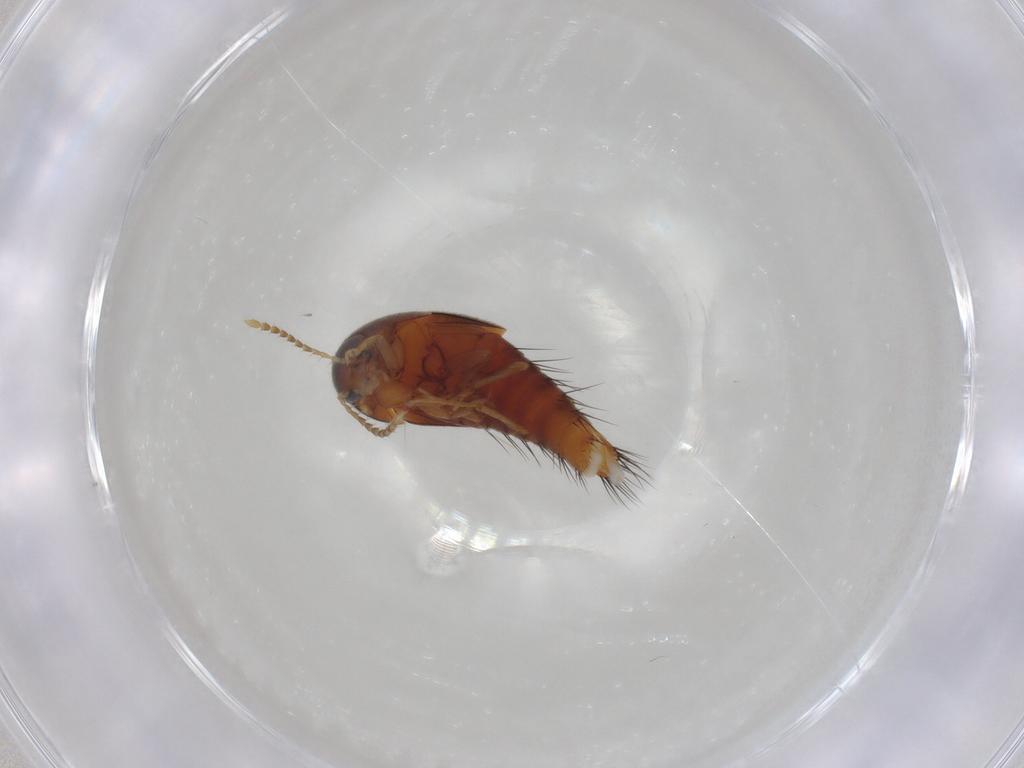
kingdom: Animalia
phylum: Arthropoda
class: Insecta
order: Coleoptera
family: Staphylinidae
